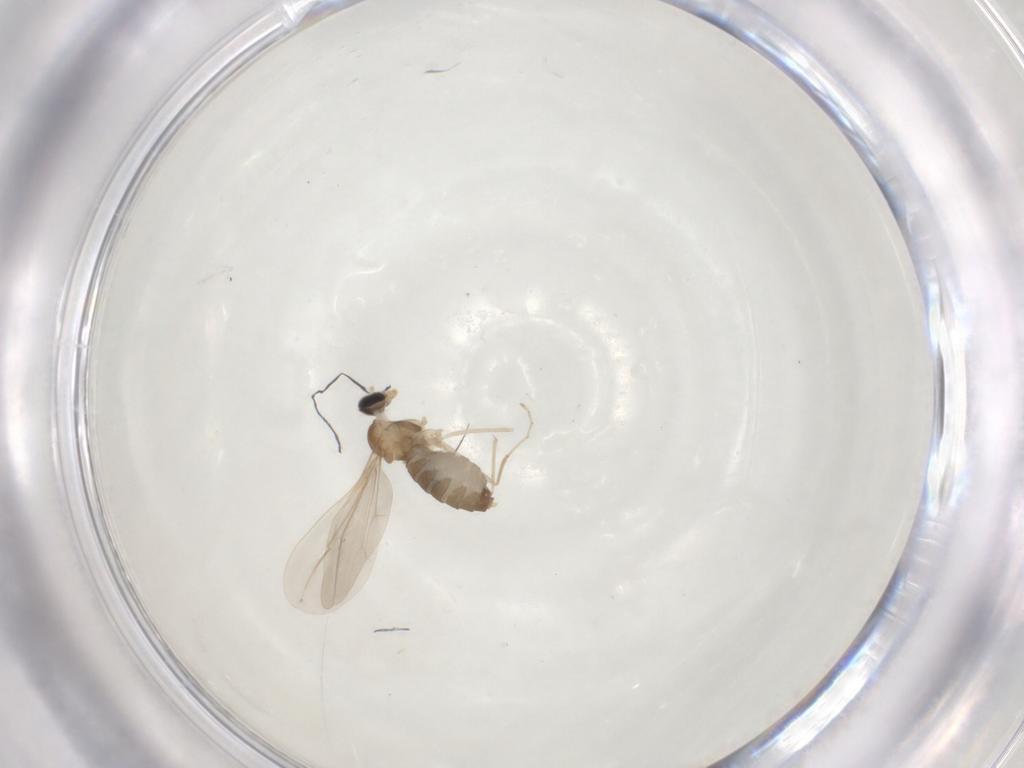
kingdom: Animalia
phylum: Arthropoda
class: Insecta
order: Diptera
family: Cecidomyiidae
